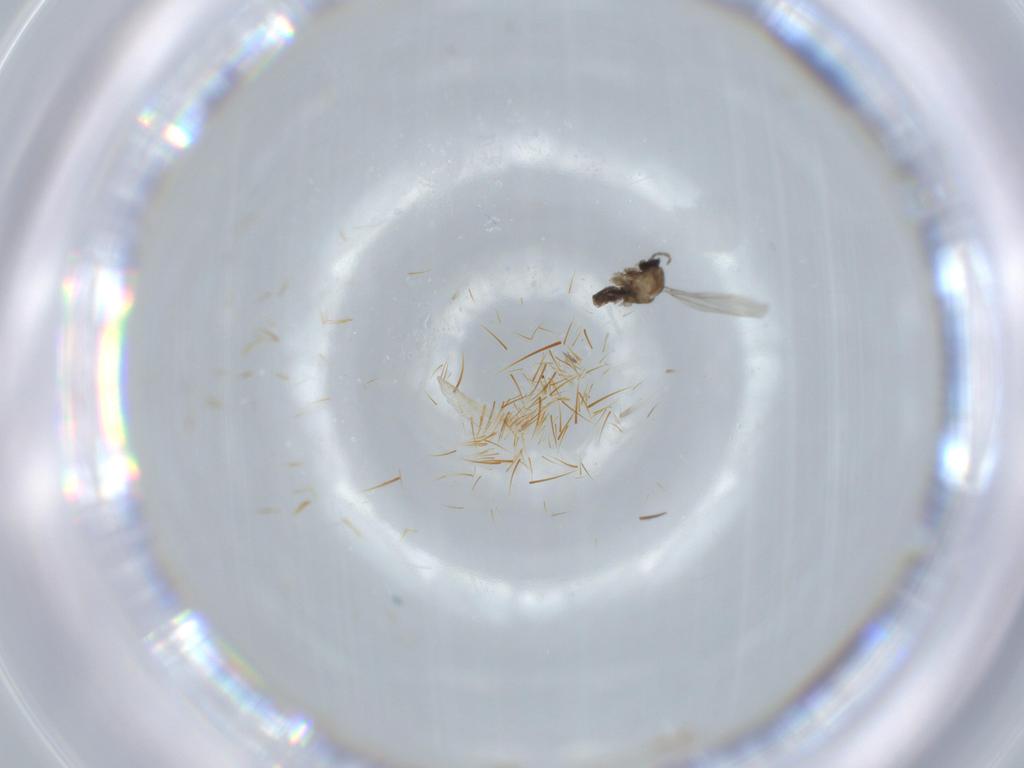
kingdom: Animalia
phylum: Arthropoda
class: Insecta
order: Diptera
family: Cecidomyiidae
